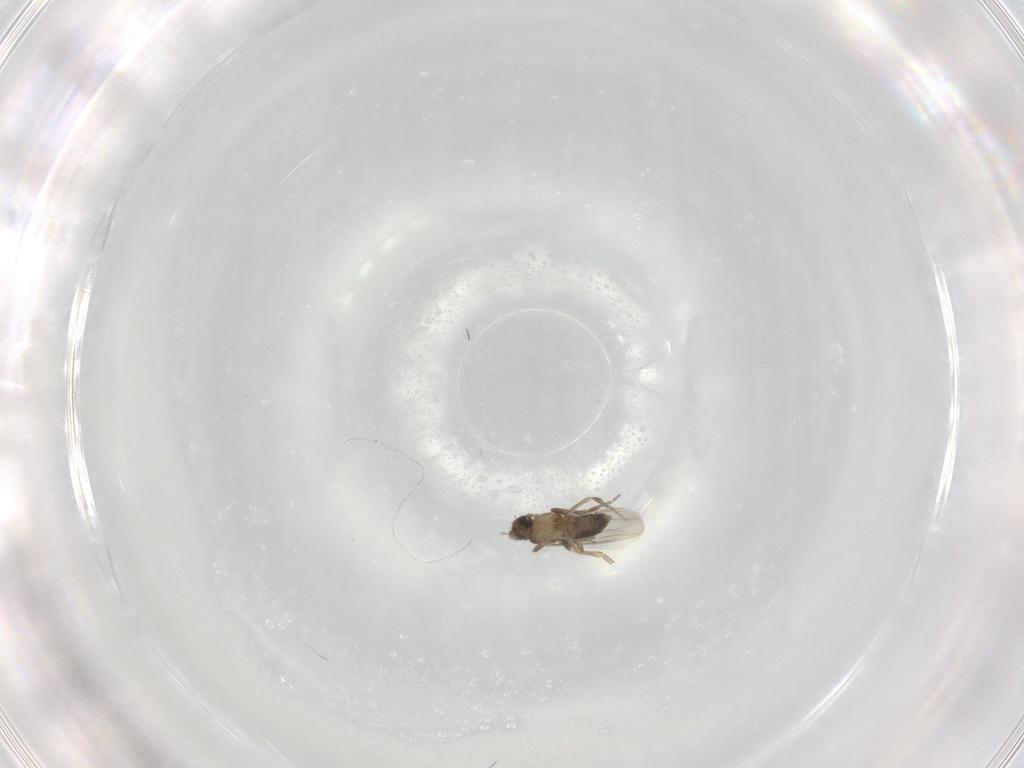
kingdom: Animalia
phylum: Arthropoda
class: Insecta
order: Diptera
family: Phoridae
